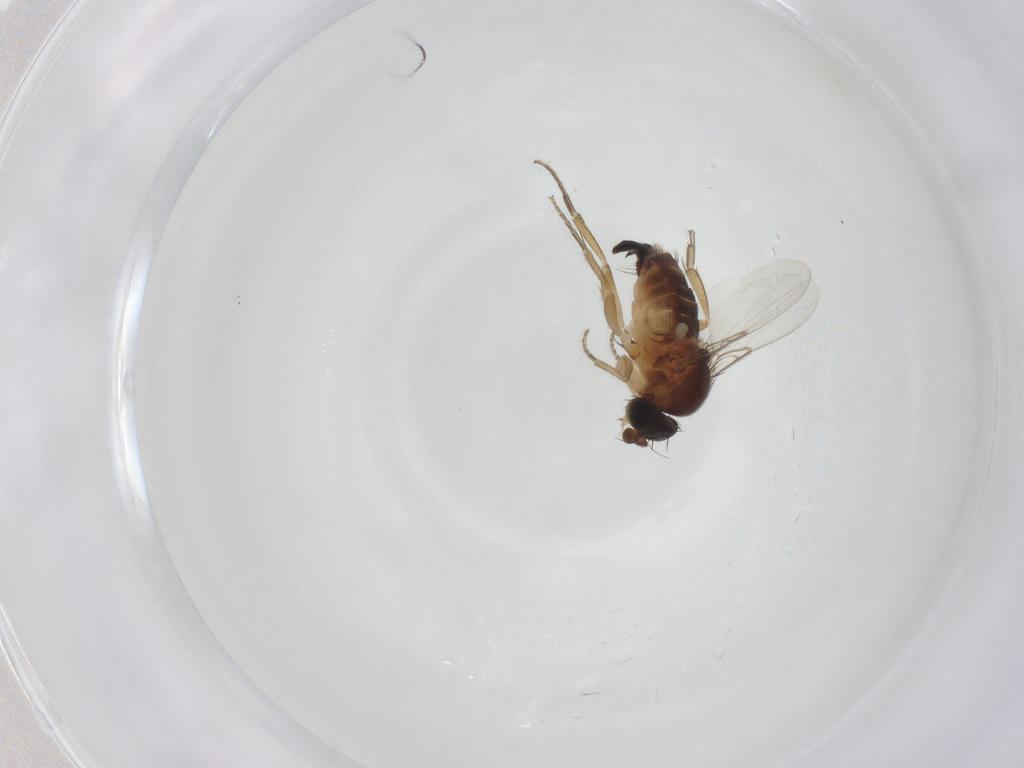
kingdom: Animalia
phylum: Arthropoda
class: Insecta
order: Diptera
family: Phoridae
